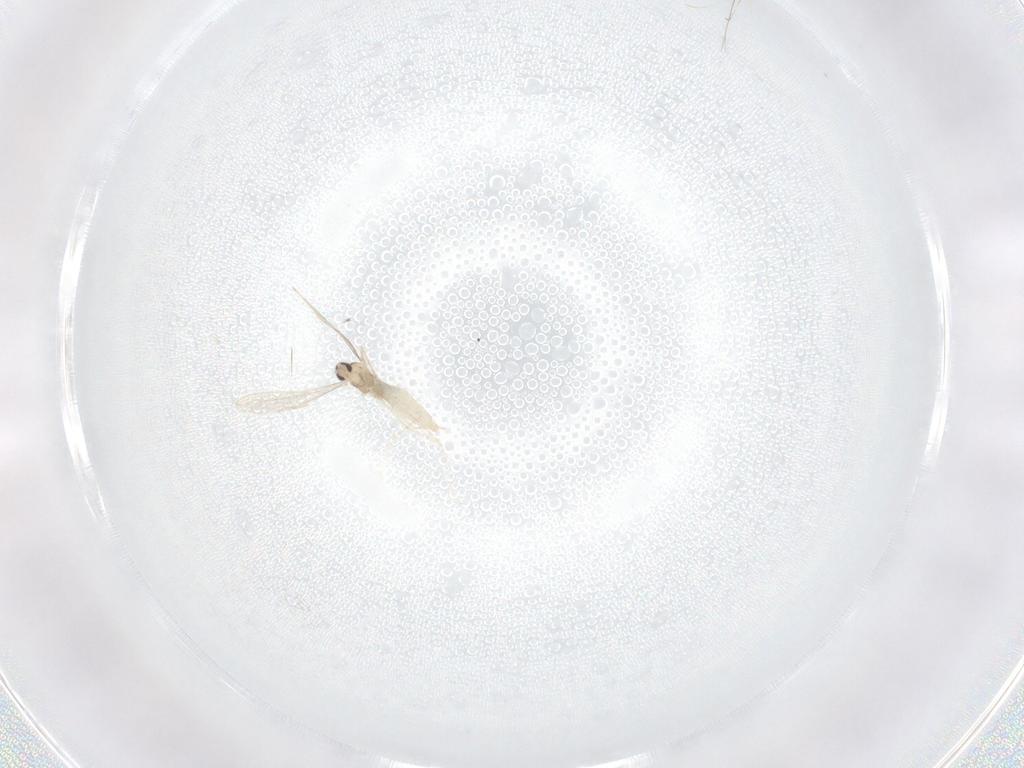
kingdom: Animalia
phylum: Arthropoda
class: Insecta
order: Diptera
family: Cecidomyiidae
